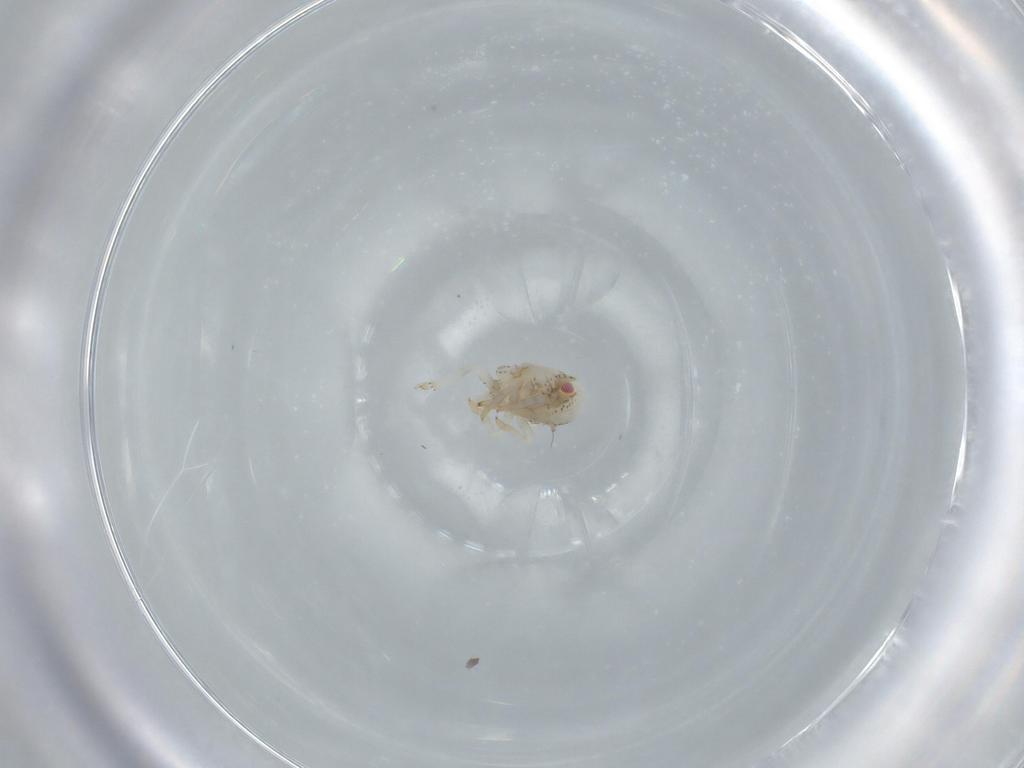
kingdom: Animalia
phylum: Arthropoda
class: Insecta
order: Hemiptera
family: Acanaloniidae
